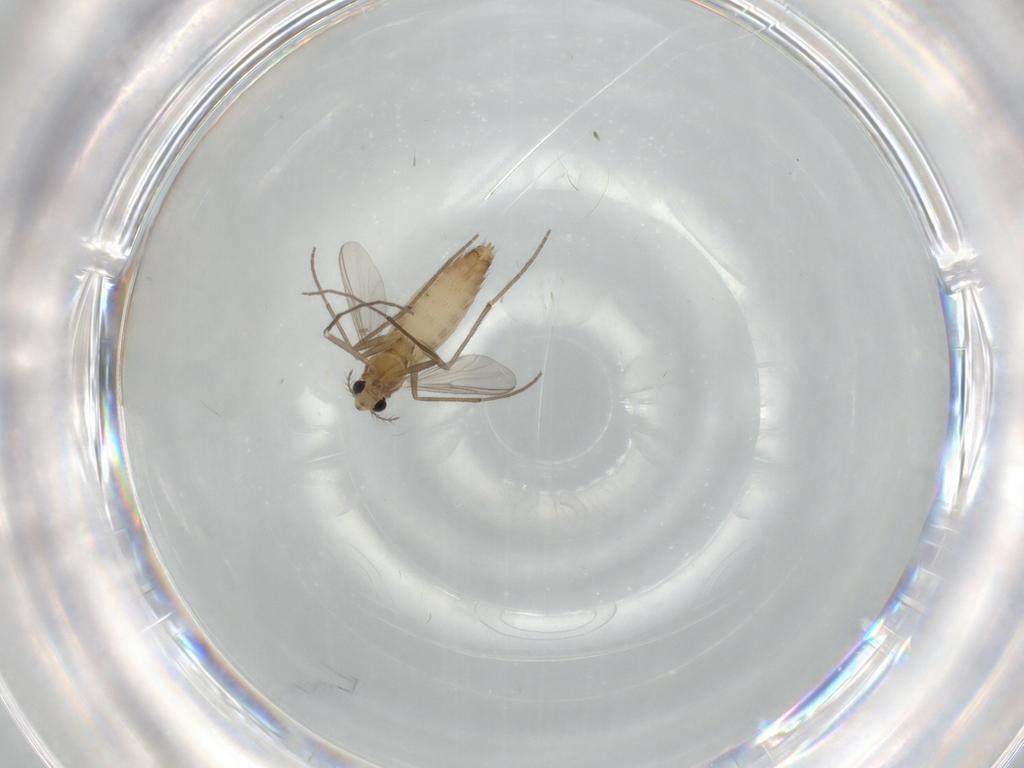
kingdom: Animalia
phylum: Arthropoda
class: Insecta
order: Diptera
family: Chironomidae
